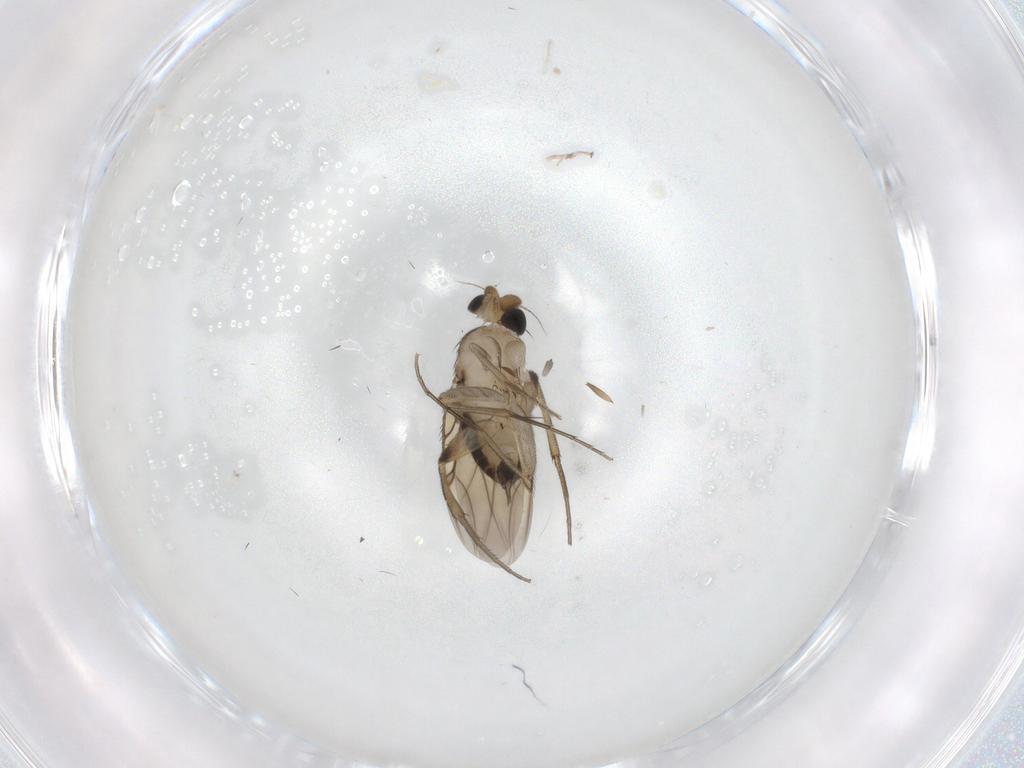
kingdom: Animalia
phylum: Arthropoda
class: Insecta
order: Diptera
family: Phoridae
